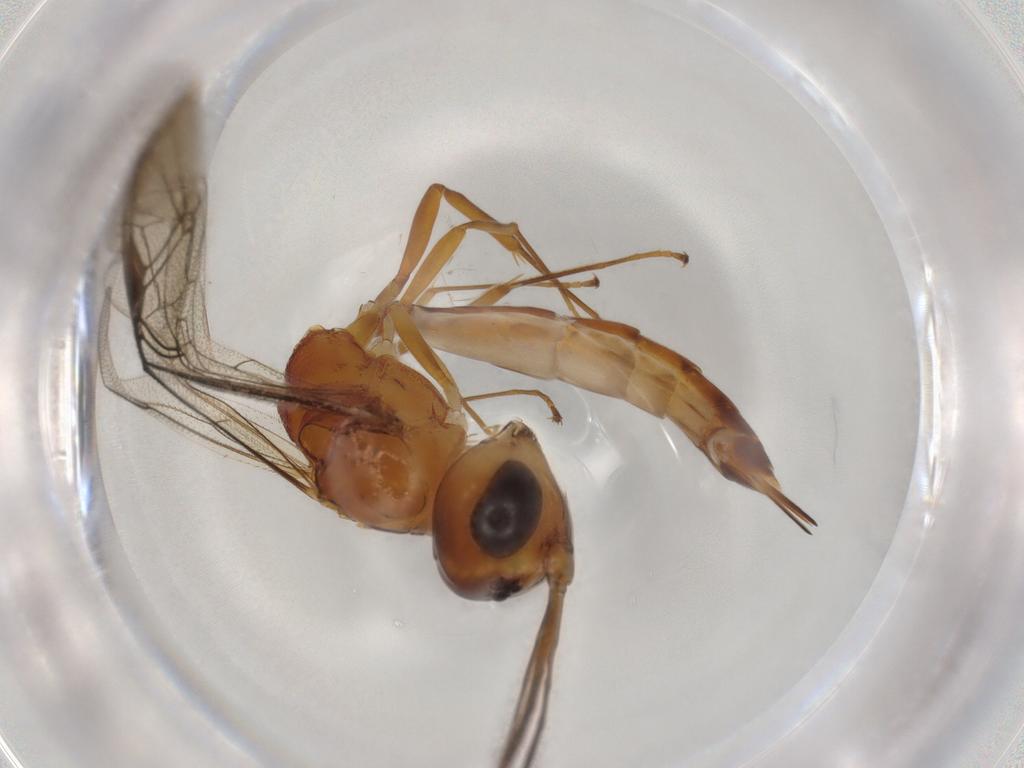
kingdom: Animalia
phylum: Arthropoda
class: Insecta
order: Hymenoptera
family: Ichneumonidae
